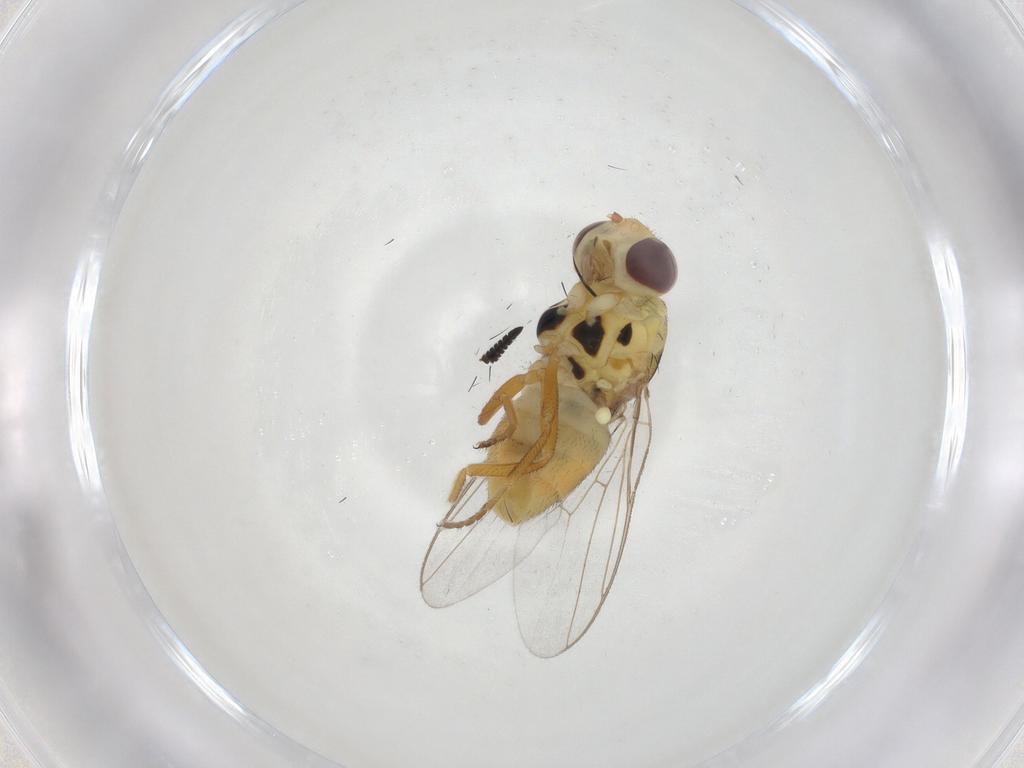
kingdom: Animalia
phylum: Arthropoda
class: Insecta
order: Diptera
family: Chloropidae
